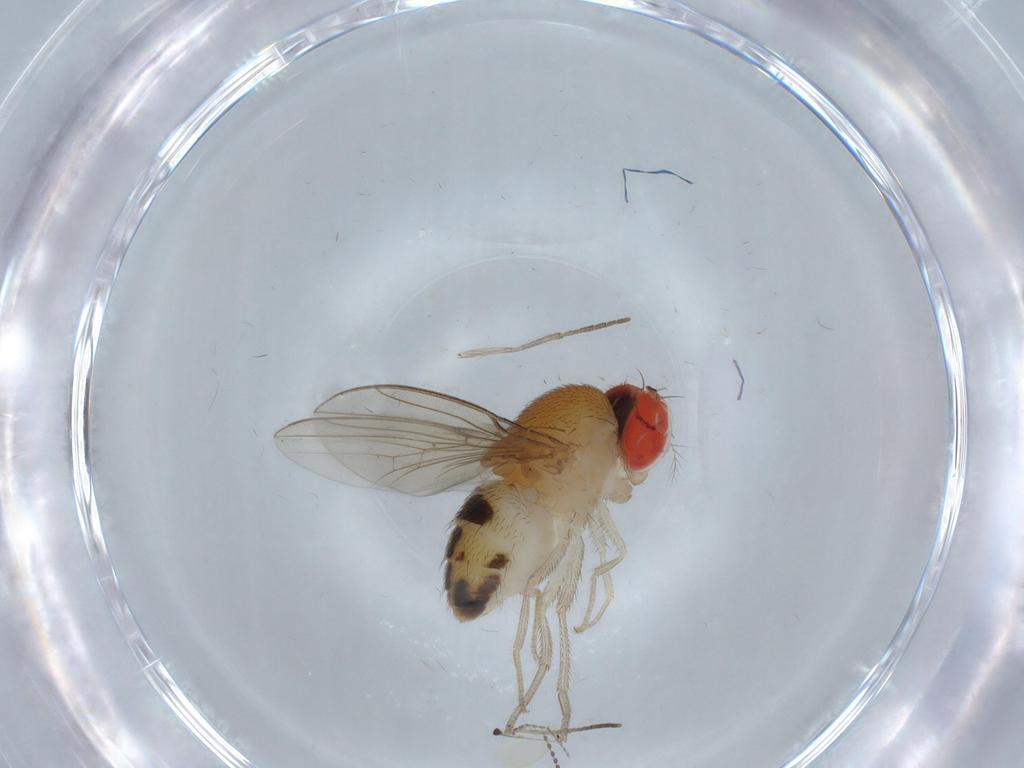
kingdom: Animalia
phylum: Arthropoda
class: Insecta
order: Diptera
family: Drosophilidae
